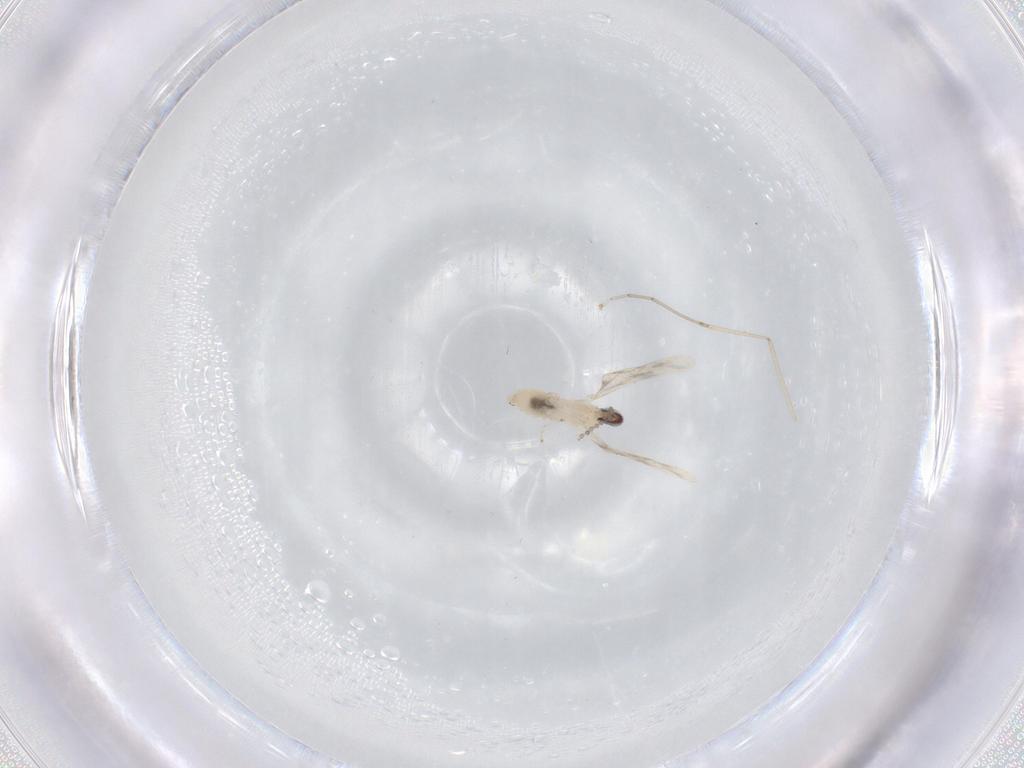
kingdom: Animalia
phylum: Arthropoda
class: Insecta
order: Diptera
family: Cecidomyiidae
